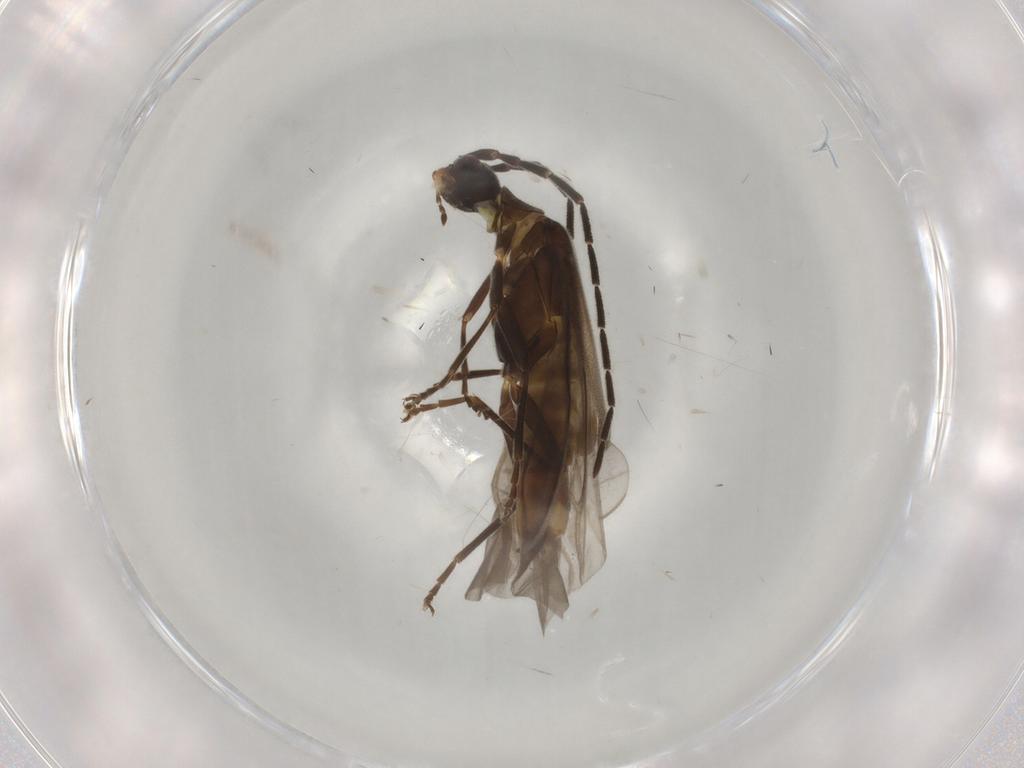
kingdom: Animalia
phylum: Arthropoda
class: Insecta
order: Coleoptera
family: Cantharidae
